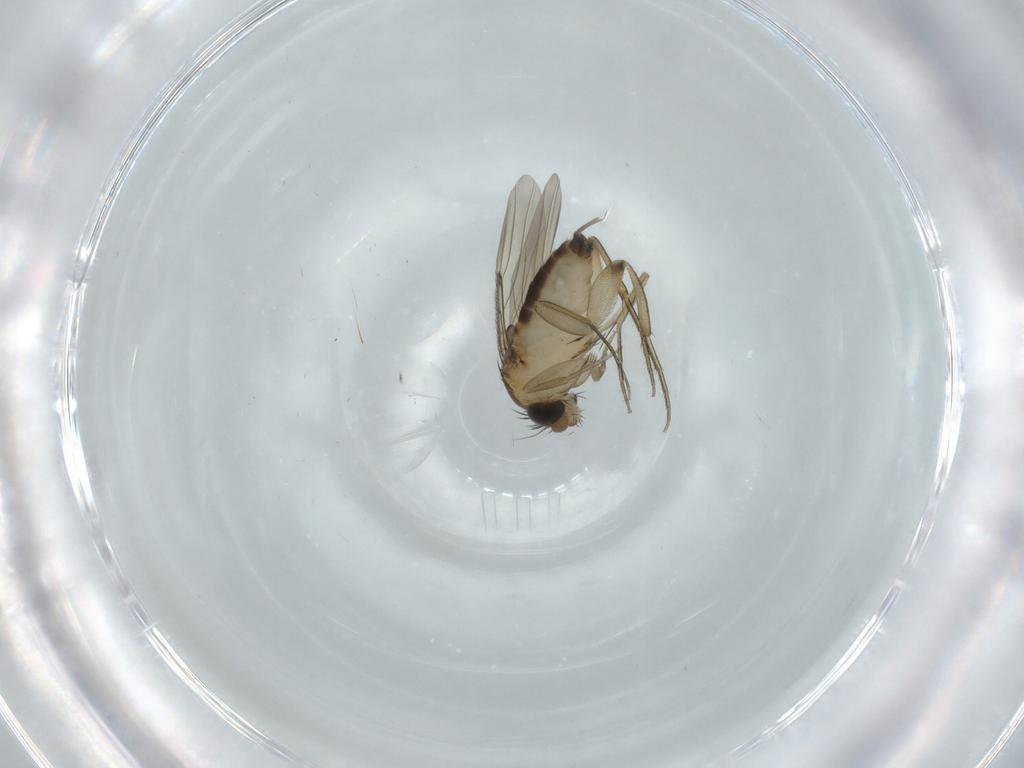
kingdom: Animalia
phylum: Arthropoda
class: Insecta
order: Diptera
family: Phoridae
